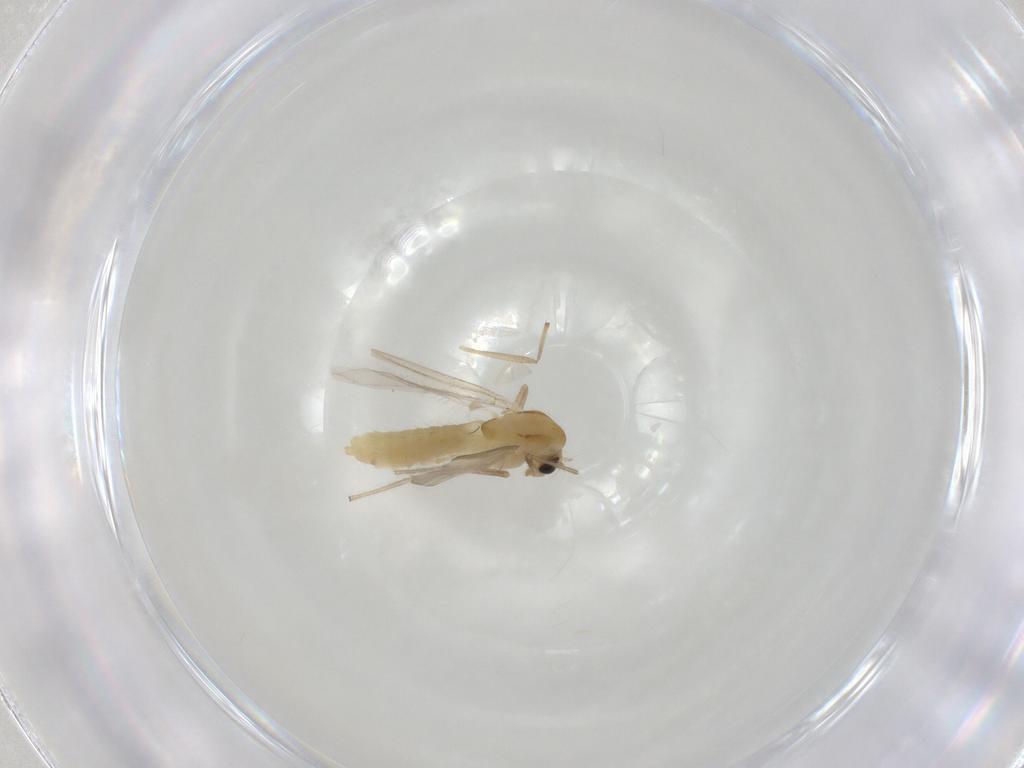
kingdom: Animalia
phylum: Arthropoda
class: Insecta
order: Diptera
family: Chironomidae
